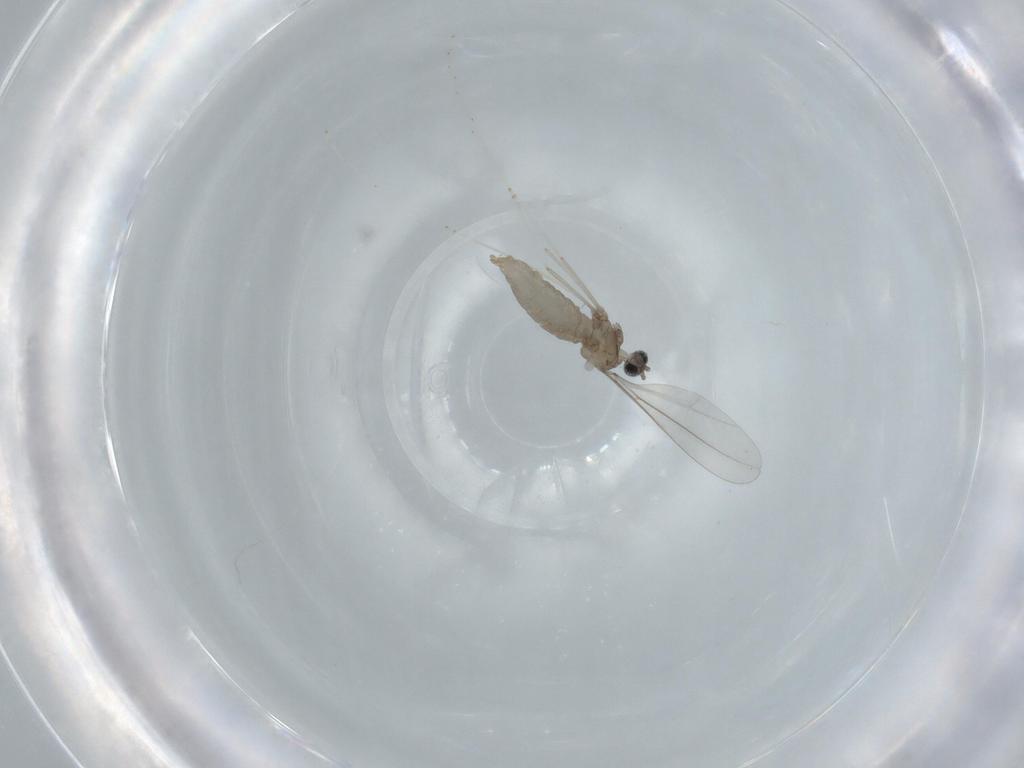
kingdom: Animalia
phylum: Arthropoda
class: Insecta
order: Diptera
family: Cecidomyiidae
